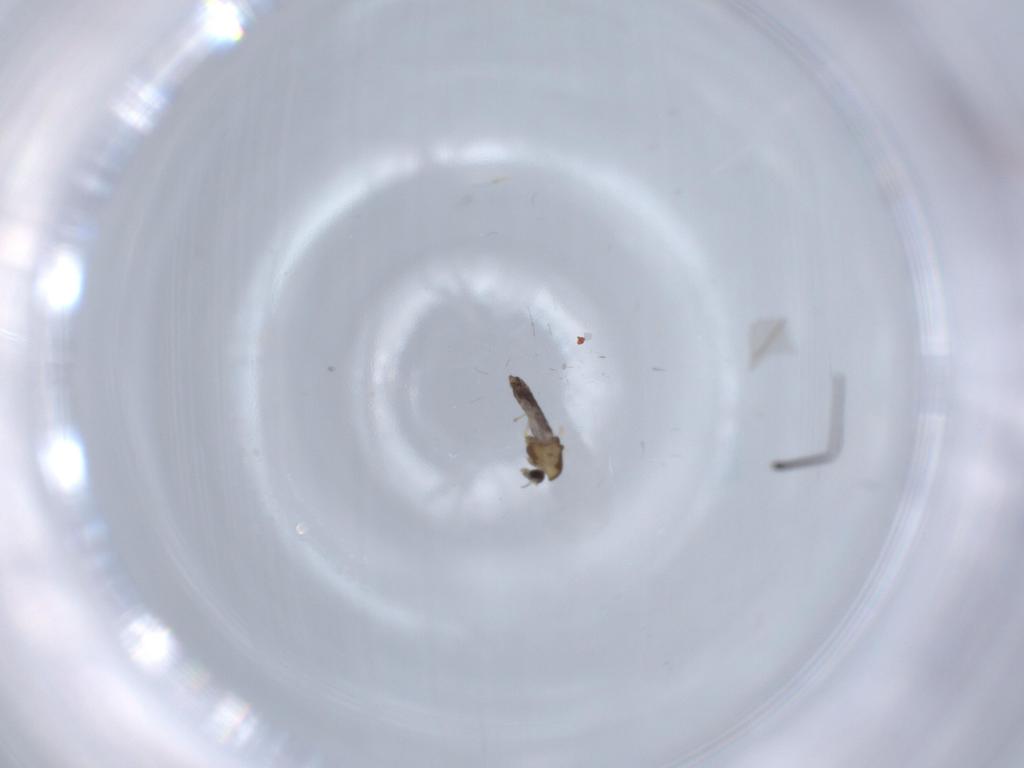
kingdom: Animalia
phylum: Arthropoda
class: Insecta
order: Diptera
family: Chironomidae
